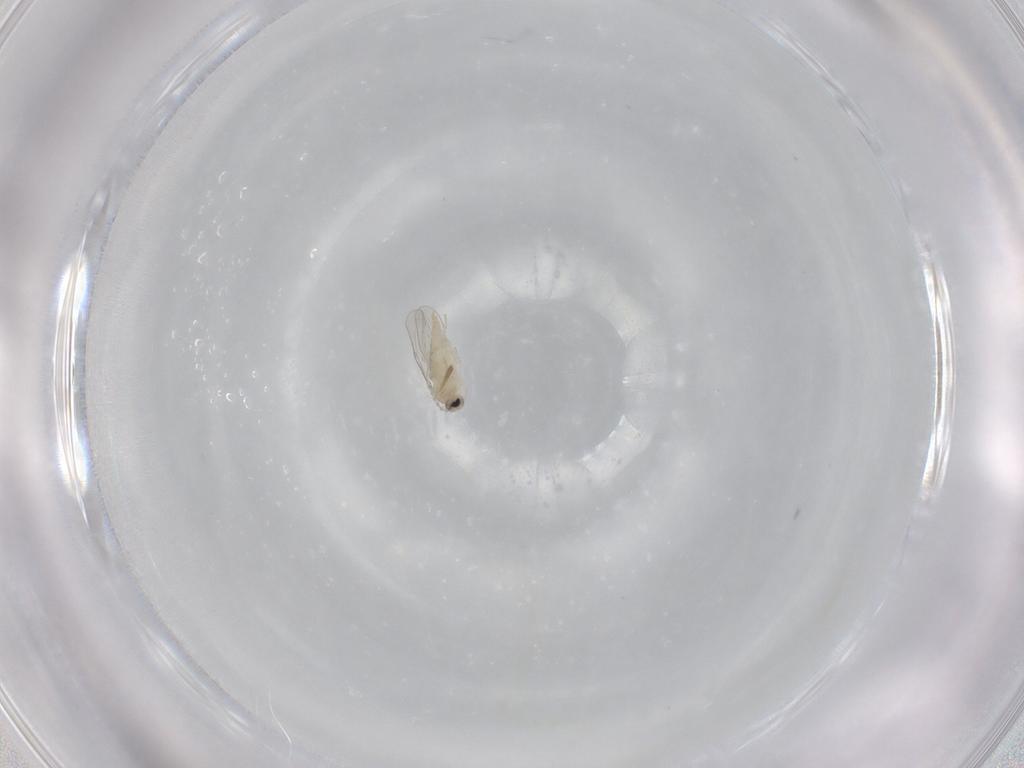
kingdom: Animalia
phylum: Arthropoda
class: Insecta
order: Diptera
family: Cecidomyiidae
